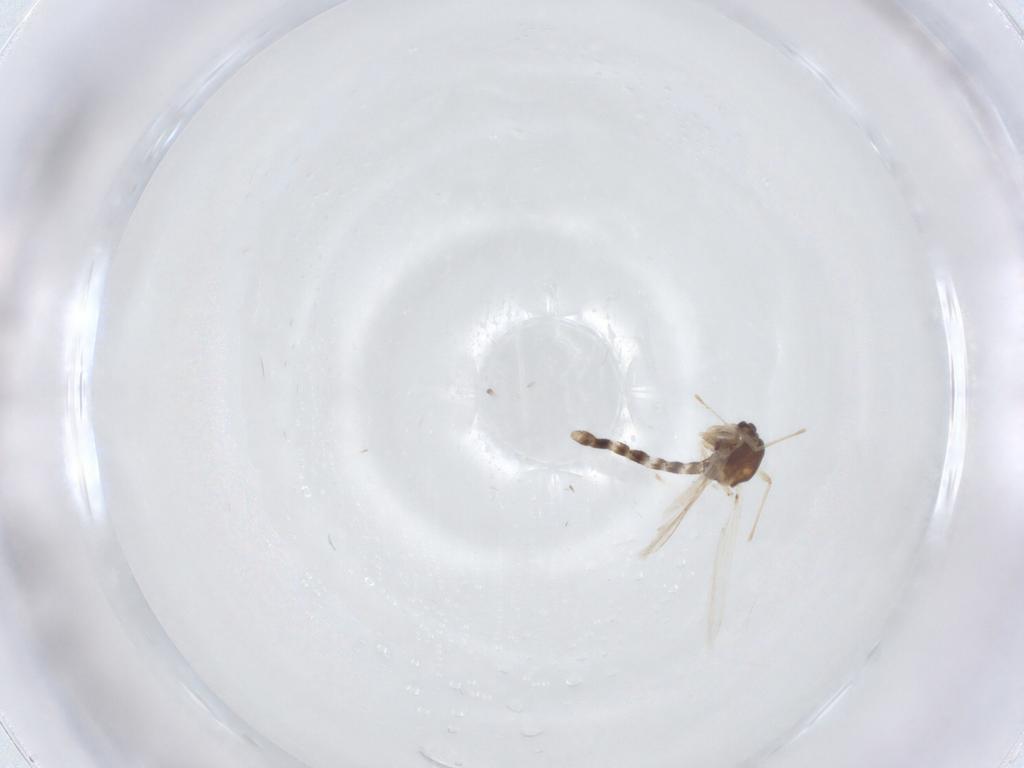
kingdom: Animalia
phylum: Arthropoda
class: Insecta
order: Diptera
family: Chironomidae
